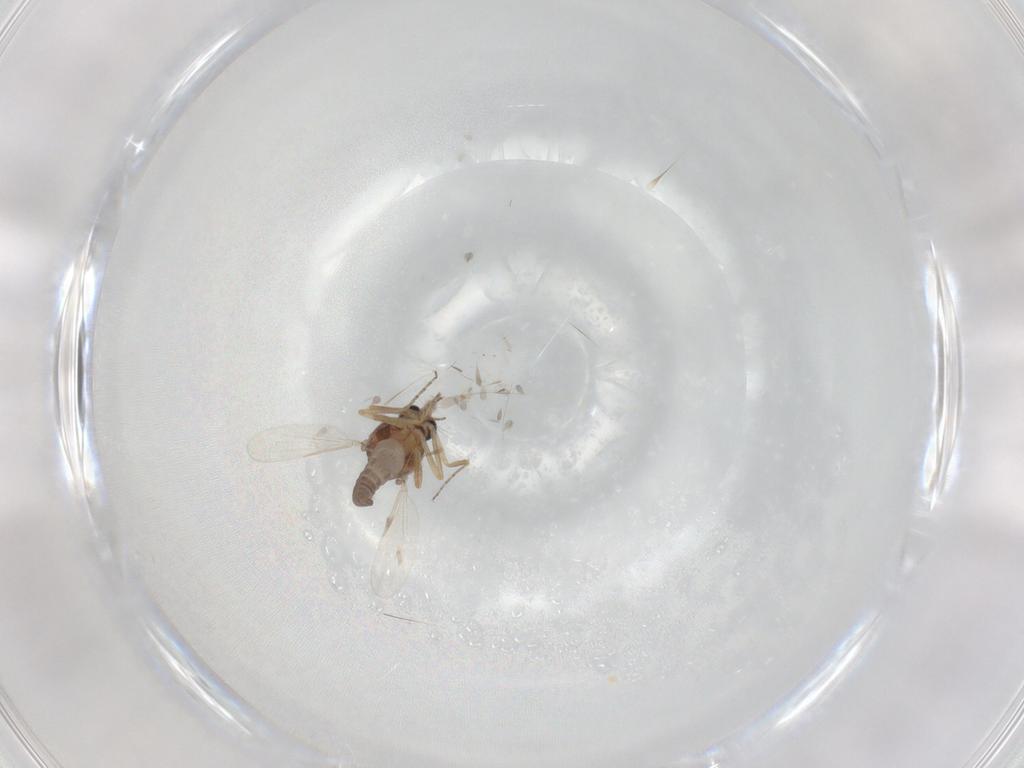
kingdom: Animalia
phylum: Arthropoda
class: Insecta
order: Diptera
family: Ceratopogonidae
